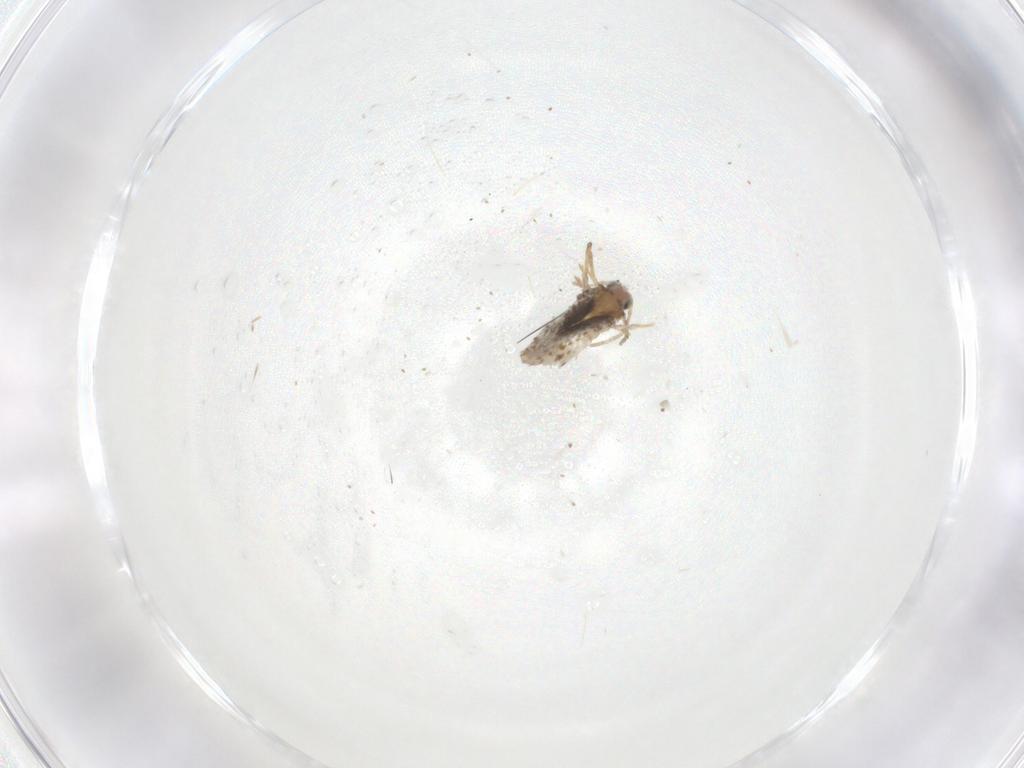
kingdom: Animalia
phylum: Arthropoda
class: Insecta
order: Lepidoptera
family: Nepticulidae
